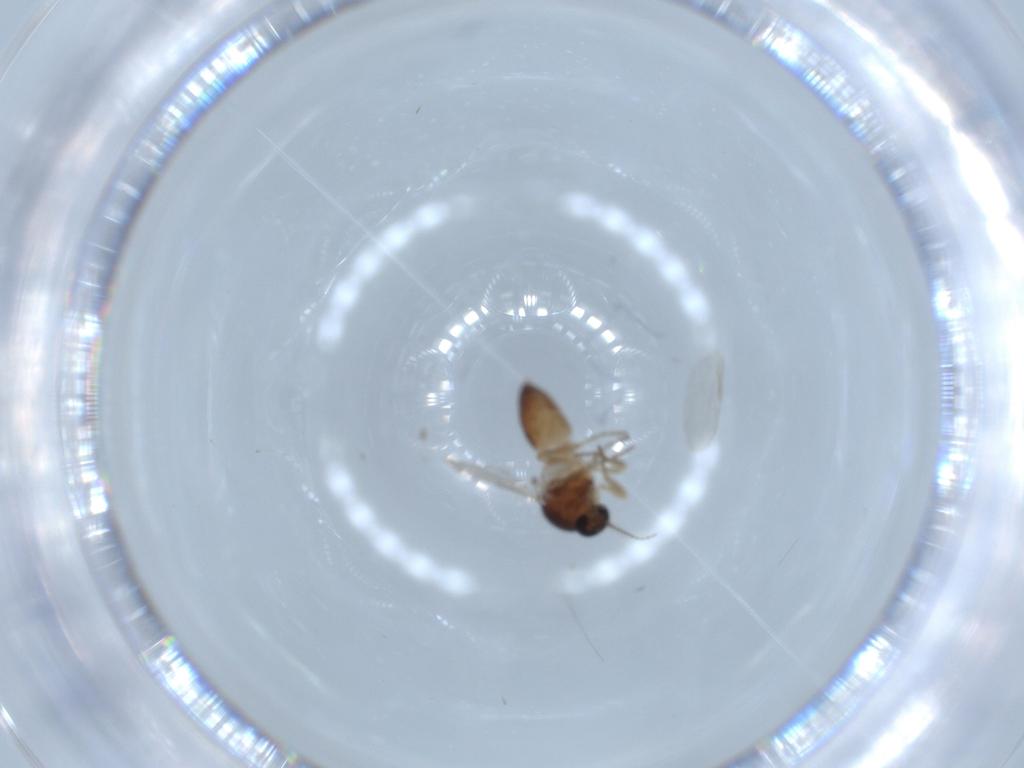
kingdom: Animalia
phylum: Arthropoda
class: Insecta
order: Diptera
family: Ceratopogonidae
